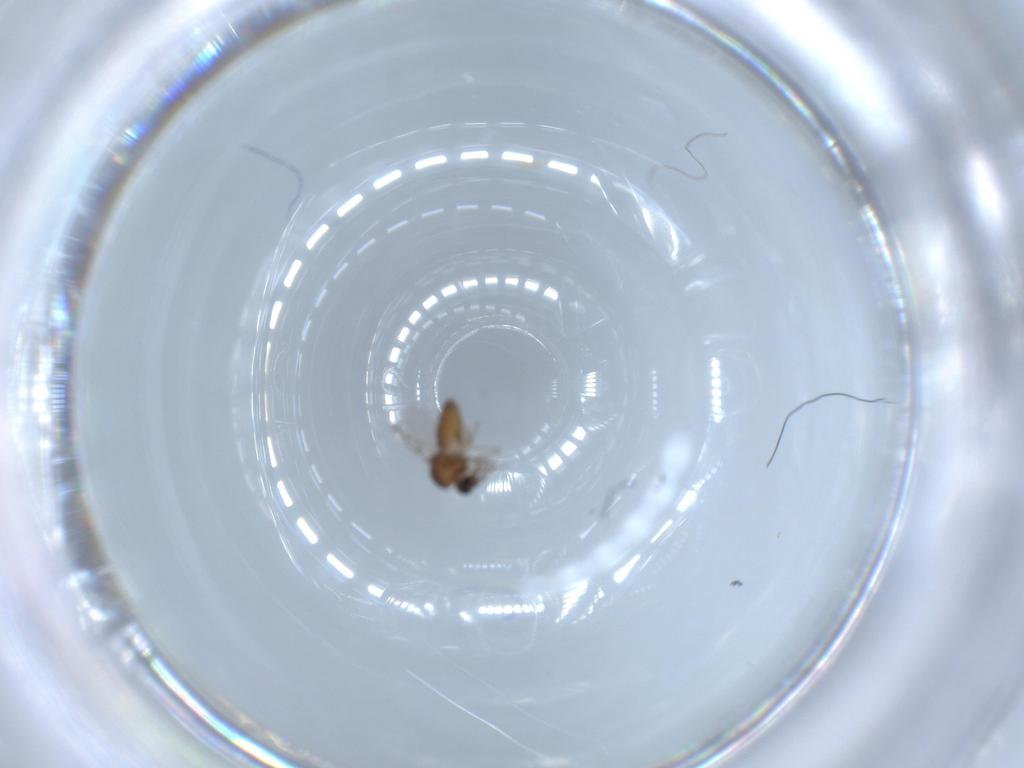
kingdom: Animalia
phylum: Arthropoda
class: Insecta
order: Diptera
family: Ceratopogonidae
